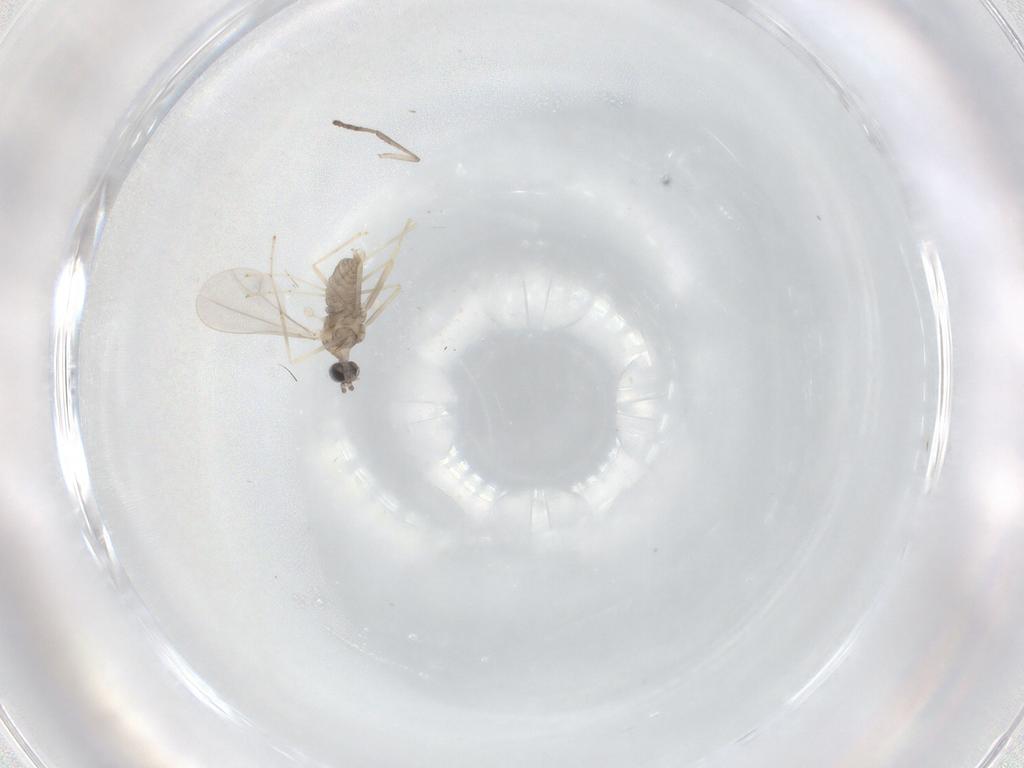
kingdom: Animalia
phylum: Arthropoda
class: Insecta
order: Diptera
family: Cecidomyiidae
